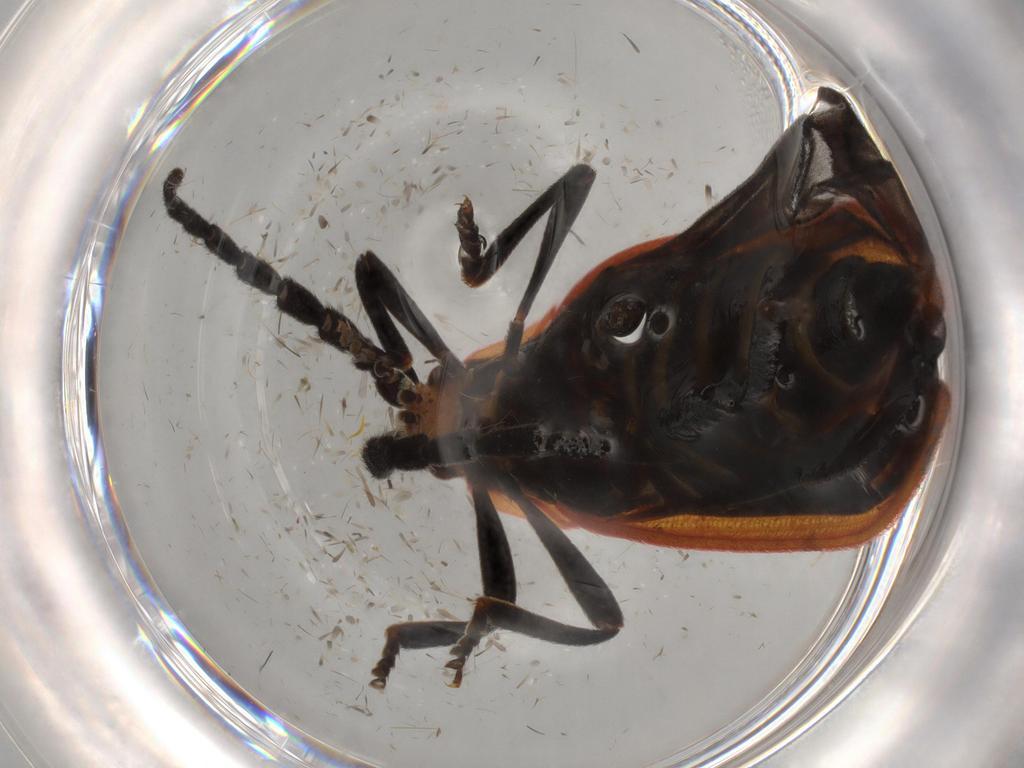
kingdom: Animalia
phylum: Arthropoda
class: Insecta
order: Coleoptera
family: Lycidae
